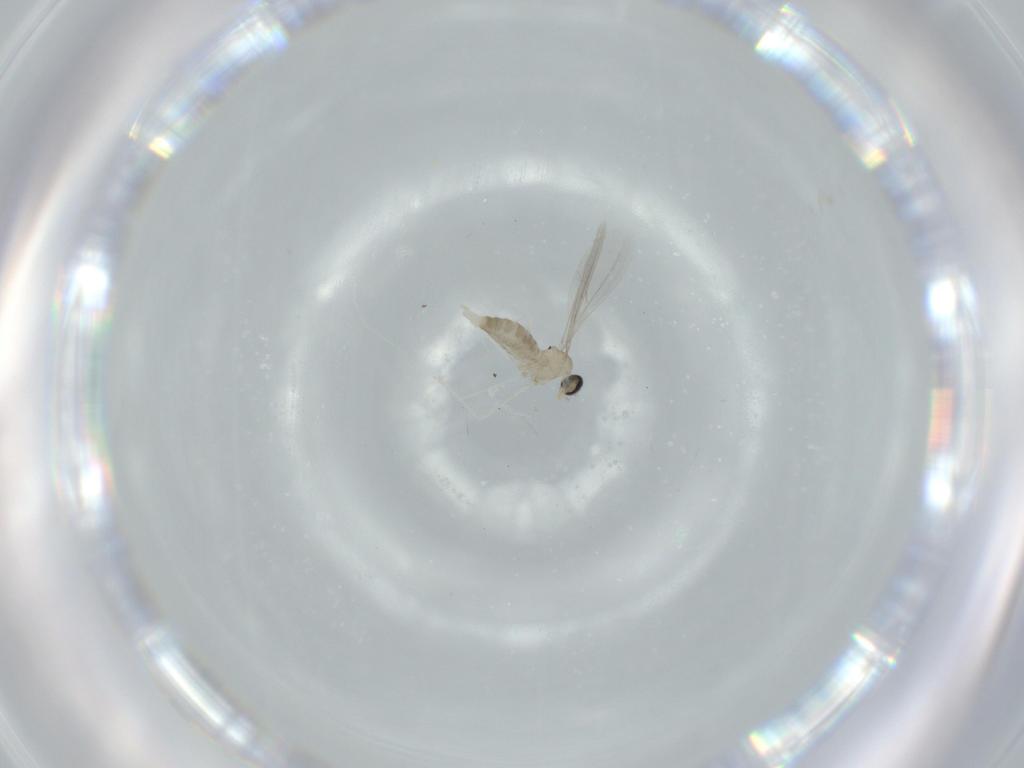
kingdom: Animalia
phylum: Arthropoda
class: Insecta
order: Diptera
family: Cecidomyiidae
